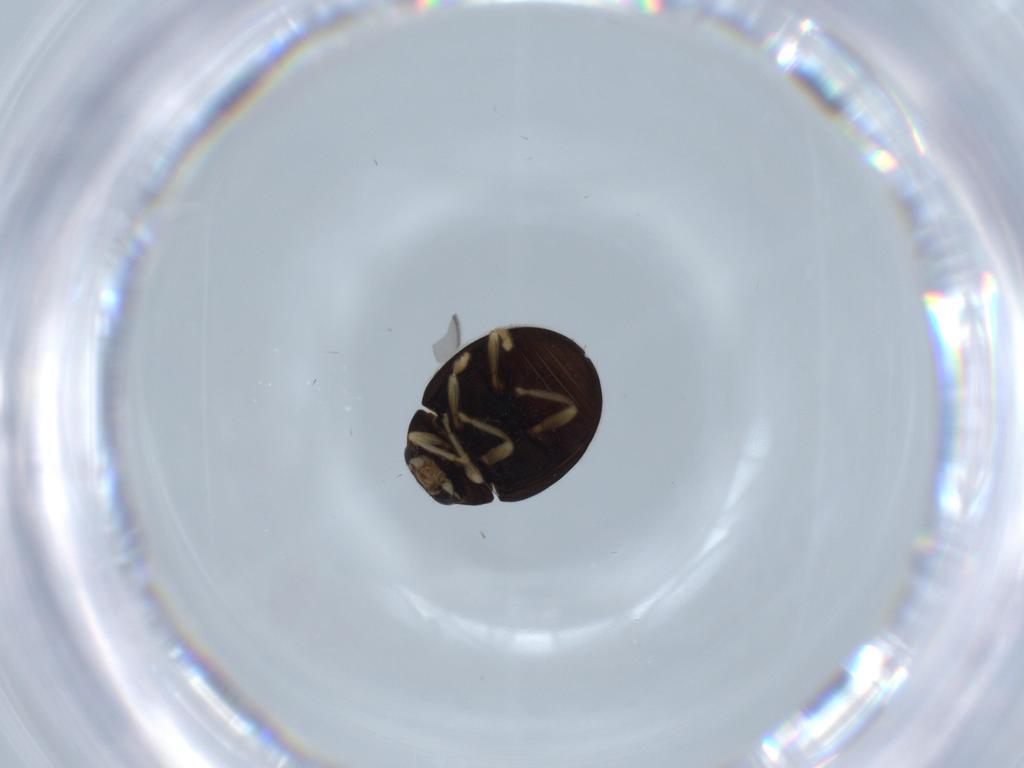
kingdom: Animalia
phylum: Arthropoda
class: Insecta
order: Coleoptera
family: Coccinellidae
